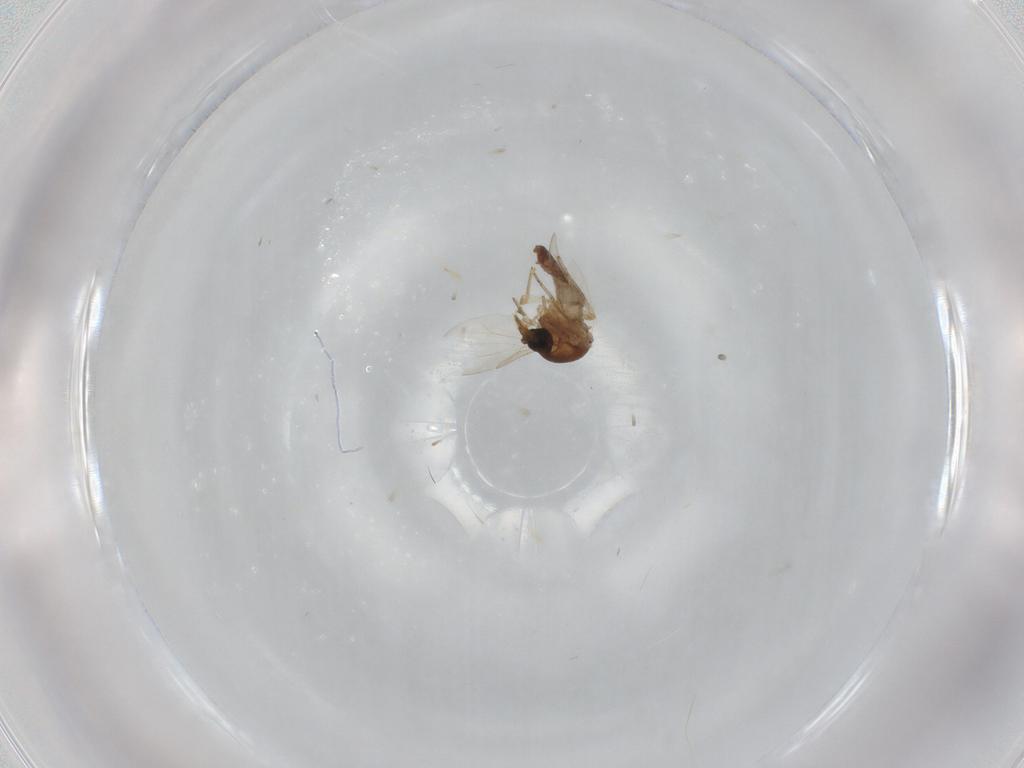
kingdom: Animalia
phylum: Arthropoda
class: Insecta
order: Diptera
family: Ceratopogonidae
